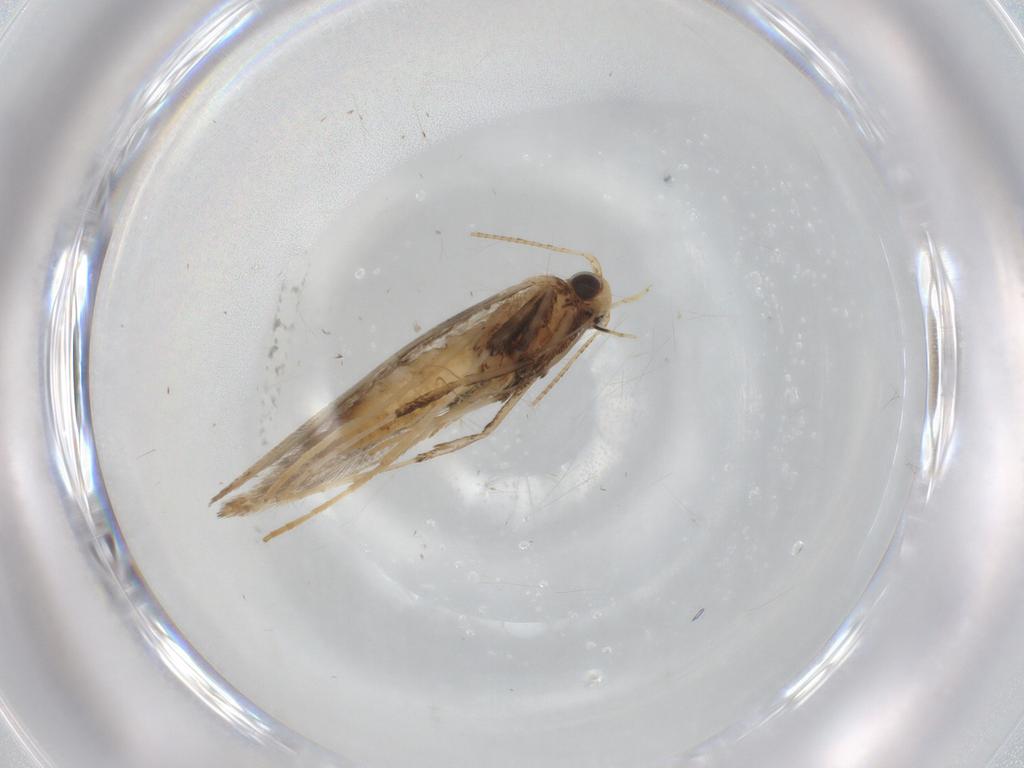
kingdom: Animalia
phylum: Arthropoda
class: Insecta
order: Lepidoptera
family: Gracillariidae
